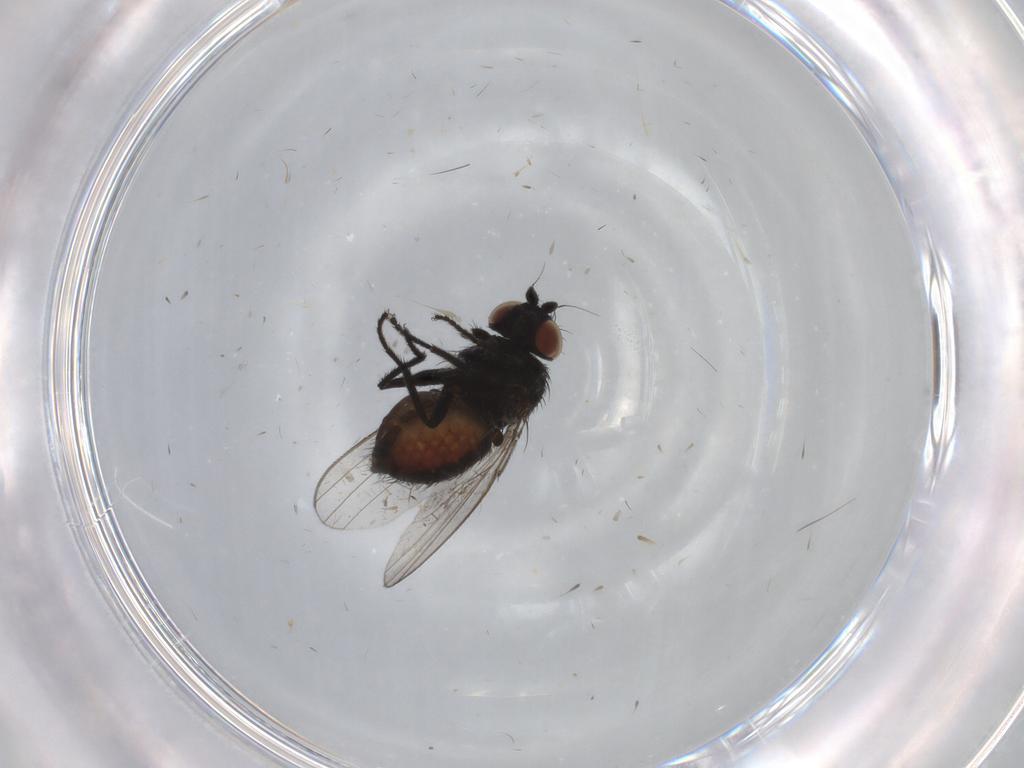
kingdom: Animalia
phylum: Arthropoda
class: Insecta
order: Diptera
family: Milichiidae
